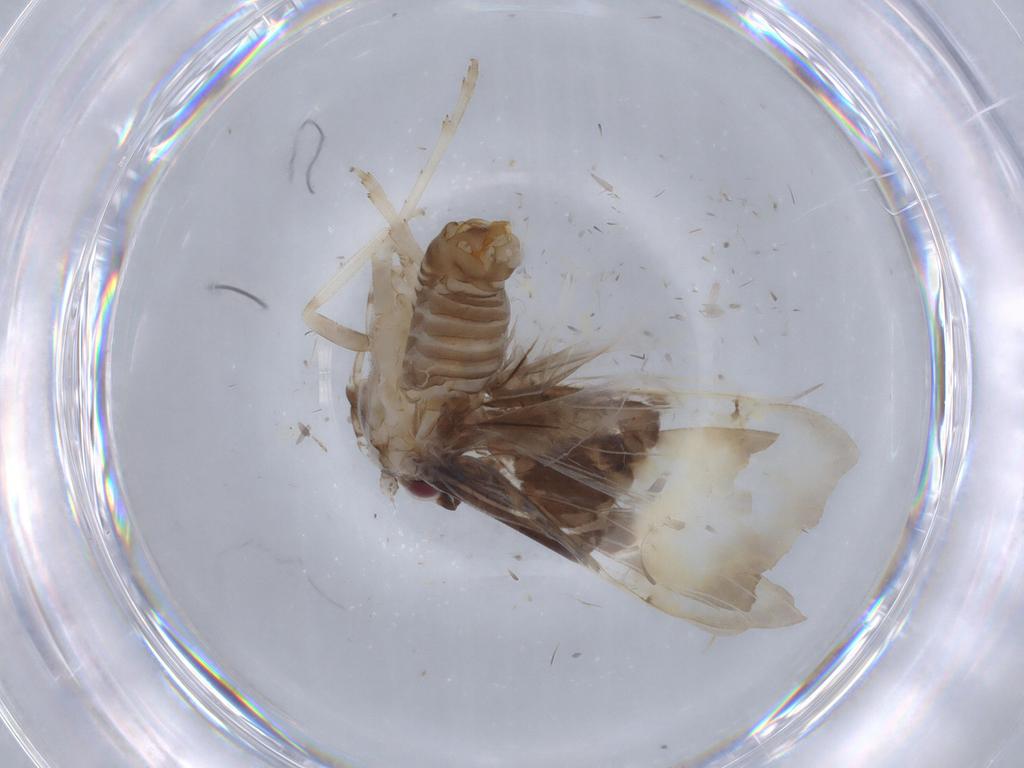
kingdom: Animalia
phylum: Arthropoda
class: Insecta
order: Hemiptera
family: Cixiidae
